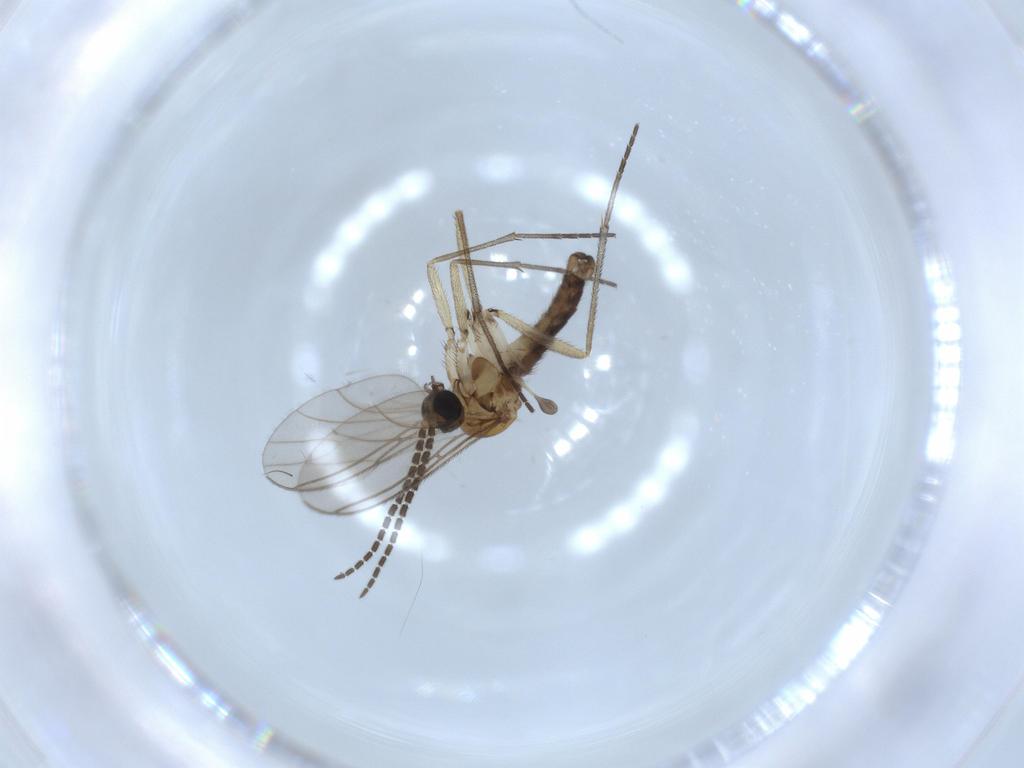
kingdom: Animalia
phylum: Arthropoda
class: Insecta
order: Diptera
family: Sciaridae
